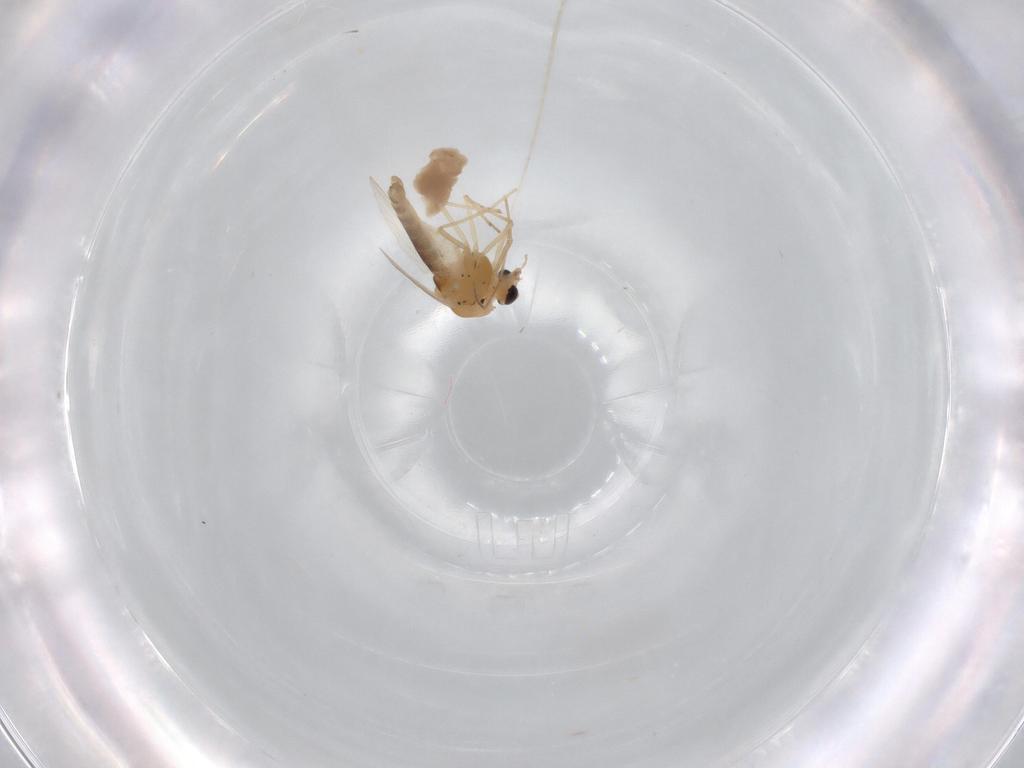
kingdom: Animalia
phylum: Arthropoda
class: Insecta
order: Diptera
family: Chironomidae
